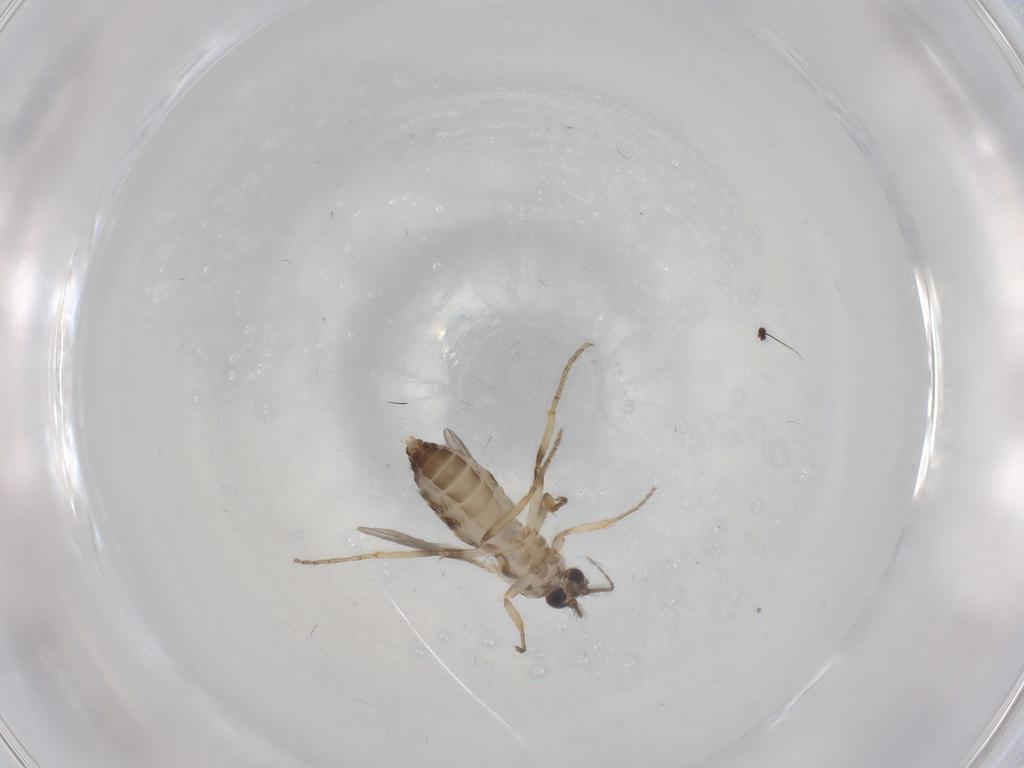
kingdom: Animalia
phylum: Arthropoda
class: Insecta
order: Diptera
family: Ceratopogonidae
